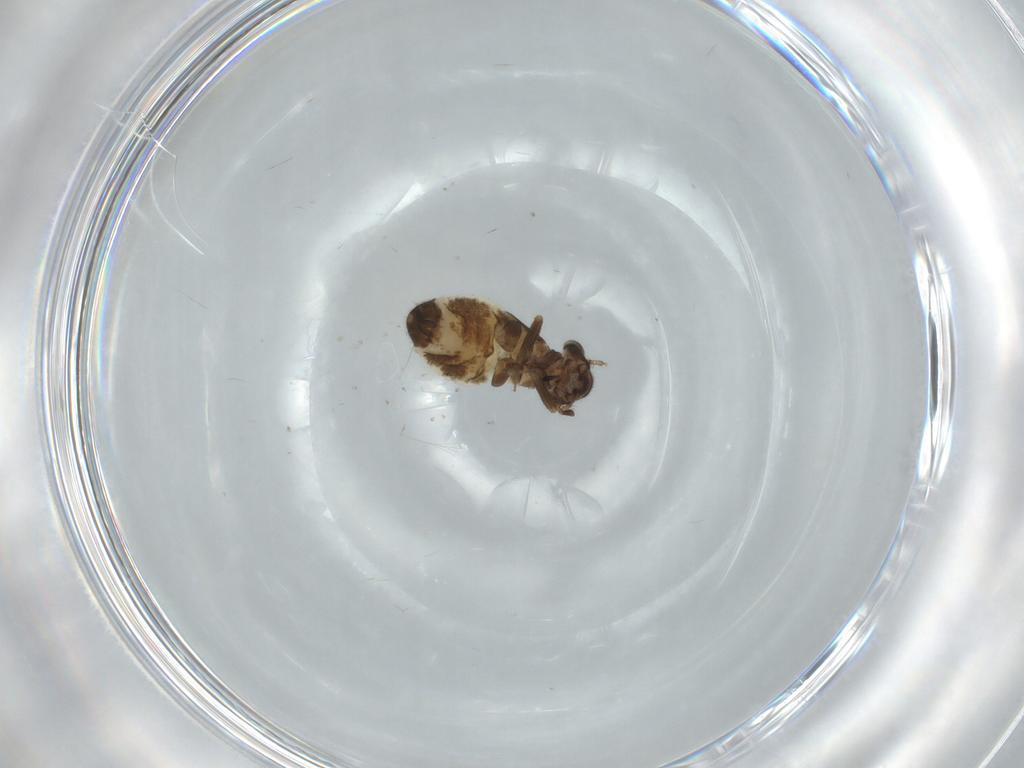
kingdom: Animalia
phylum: Arthropoda
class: Insecta
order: Psocodea
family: Lepidopsocidae
